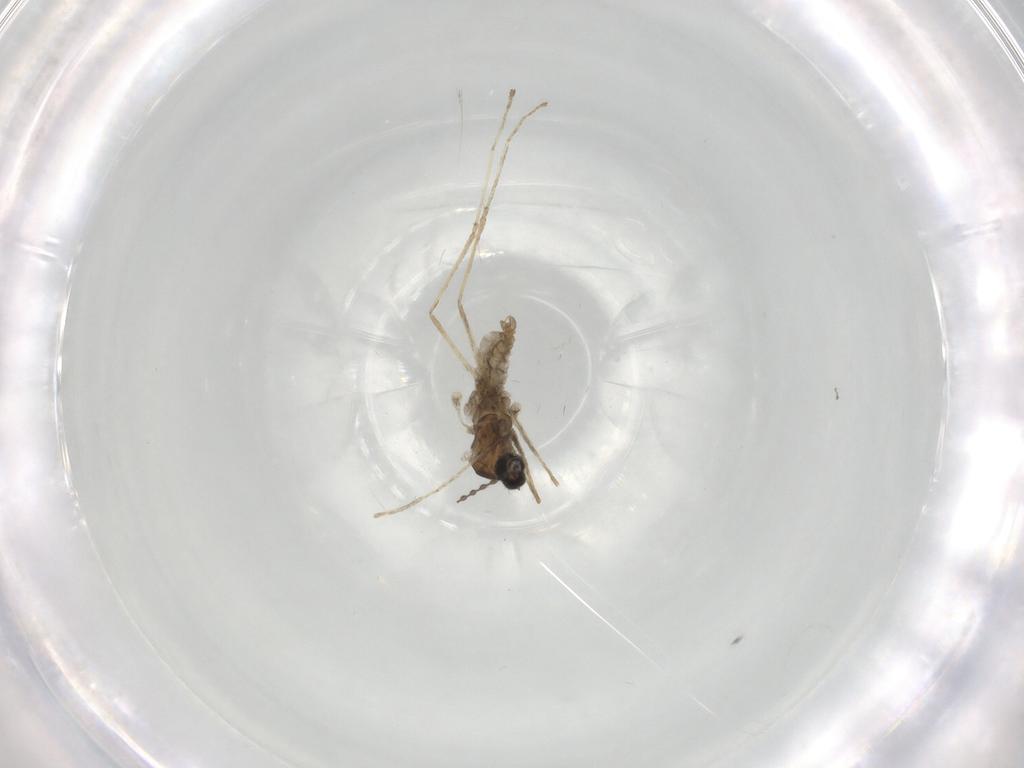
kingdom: Animalia
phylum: Arthropoda
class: Insecta
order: Diptera
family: Cecidomyiidae
